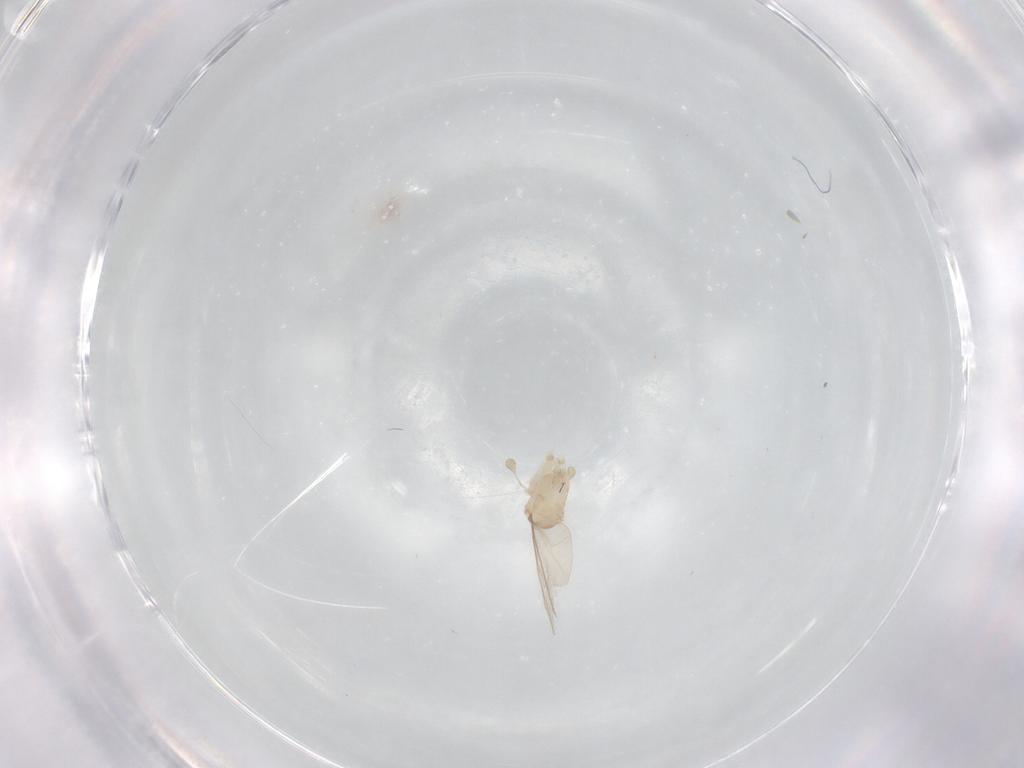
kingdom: Animalia
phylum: Arthropoda
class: Insecta
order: Diptera
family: Cecidomyiidae
